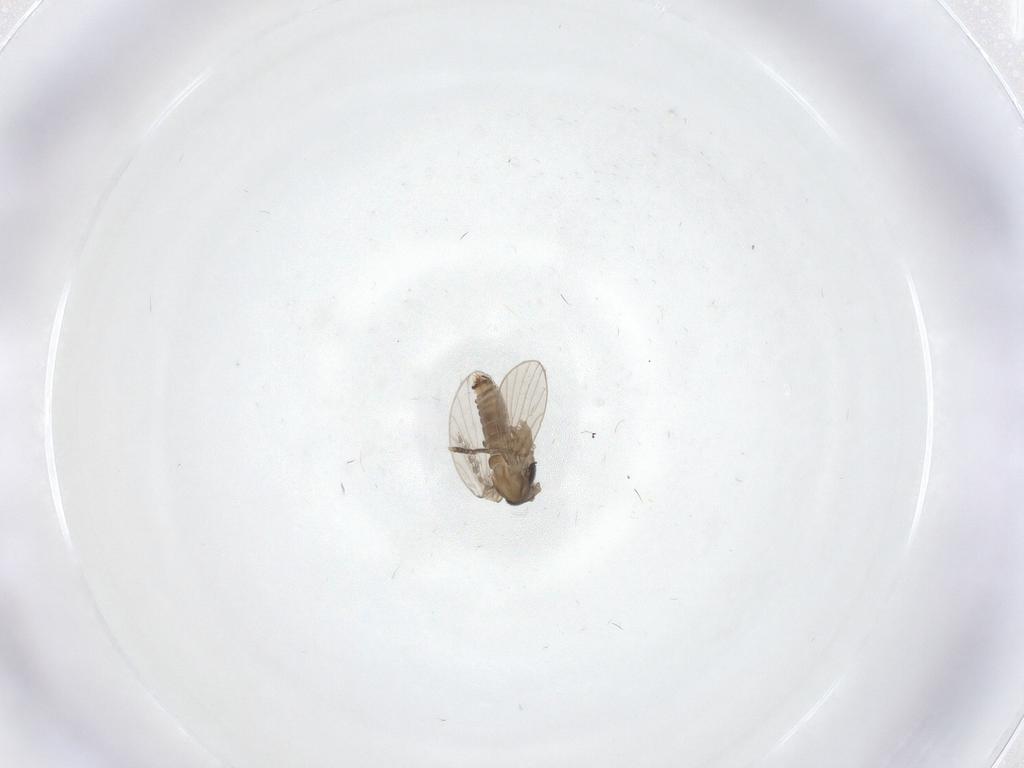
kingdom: Animalia
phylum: Arthropoda
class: Insecta
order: Diptera
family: Psychodidae
